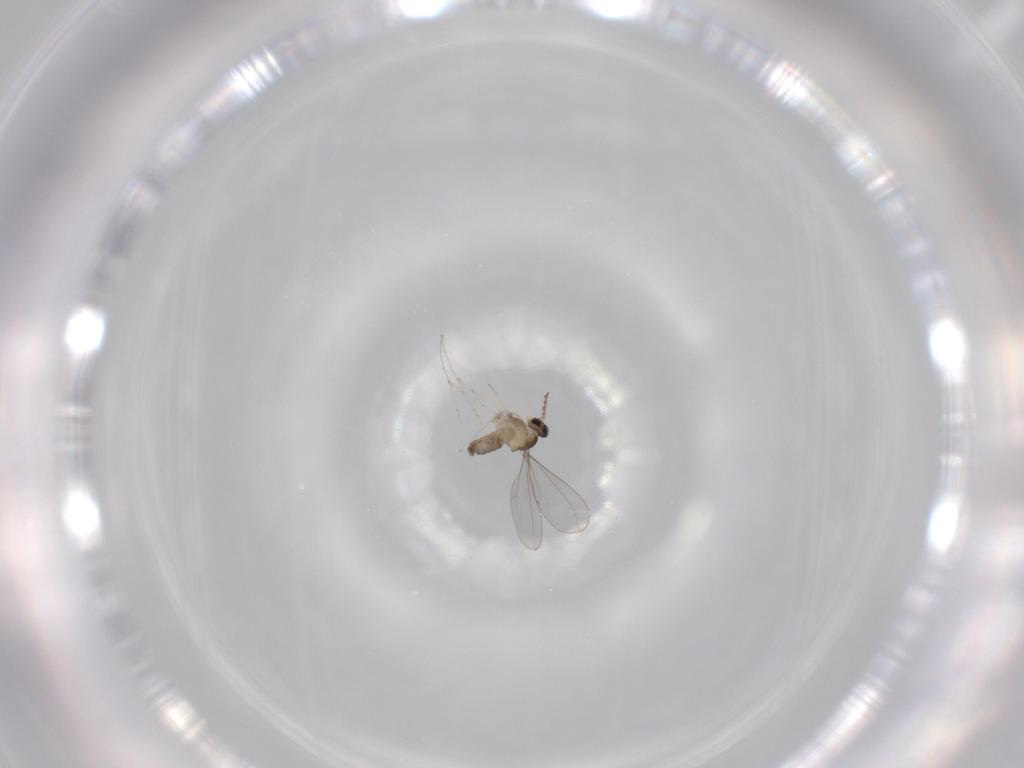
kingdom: Animalia
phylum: Arthropoda
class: Insecta
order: Diptera
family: Cecidomyiidae
